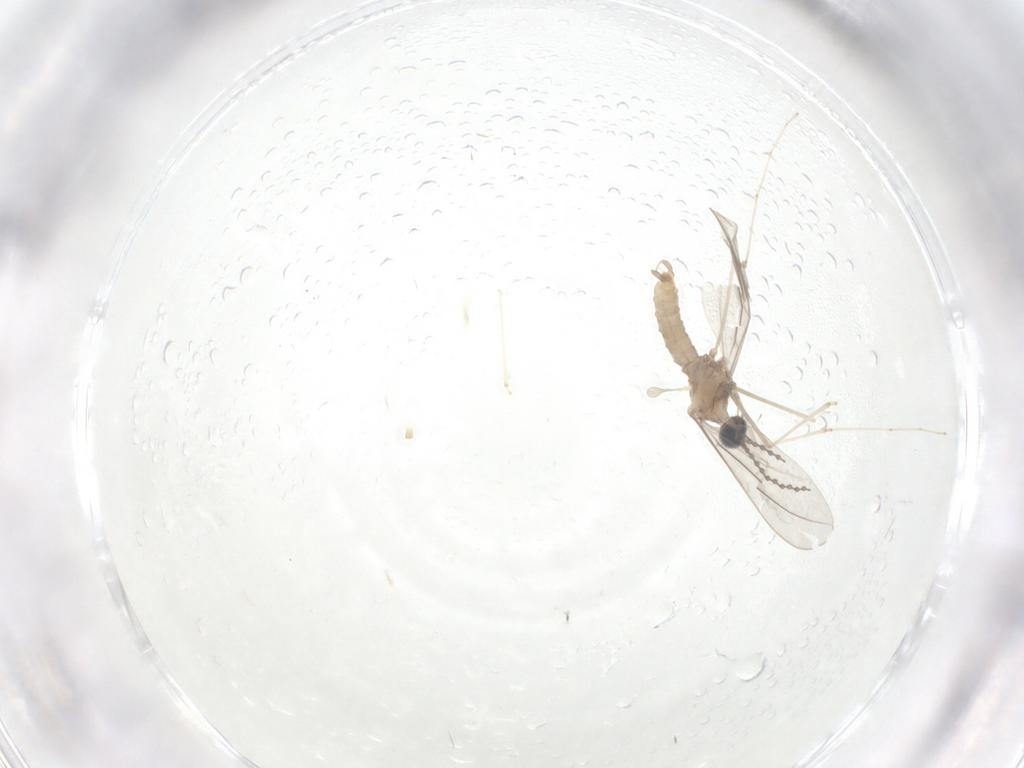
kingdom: Animalia
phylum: Arthropoda
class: Insecta
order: Diptera
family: Cecidomyiidae
